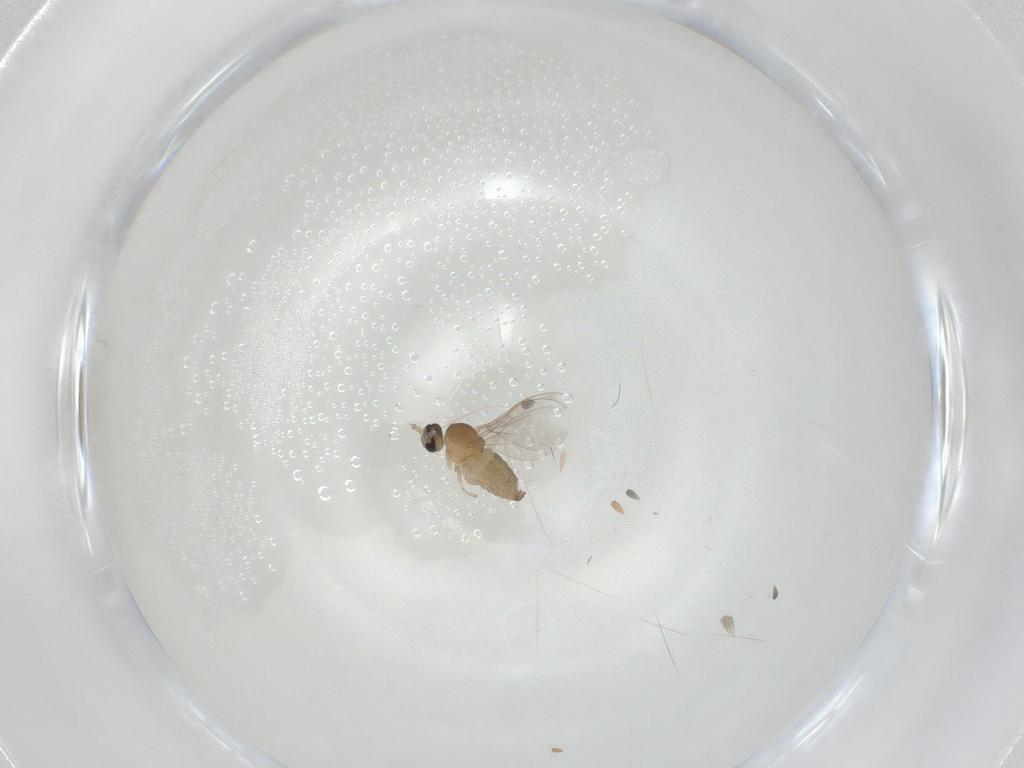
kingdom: Animalia
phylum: Arthropoda
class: Insecta
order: Diptera
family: Cecidomyiidae
